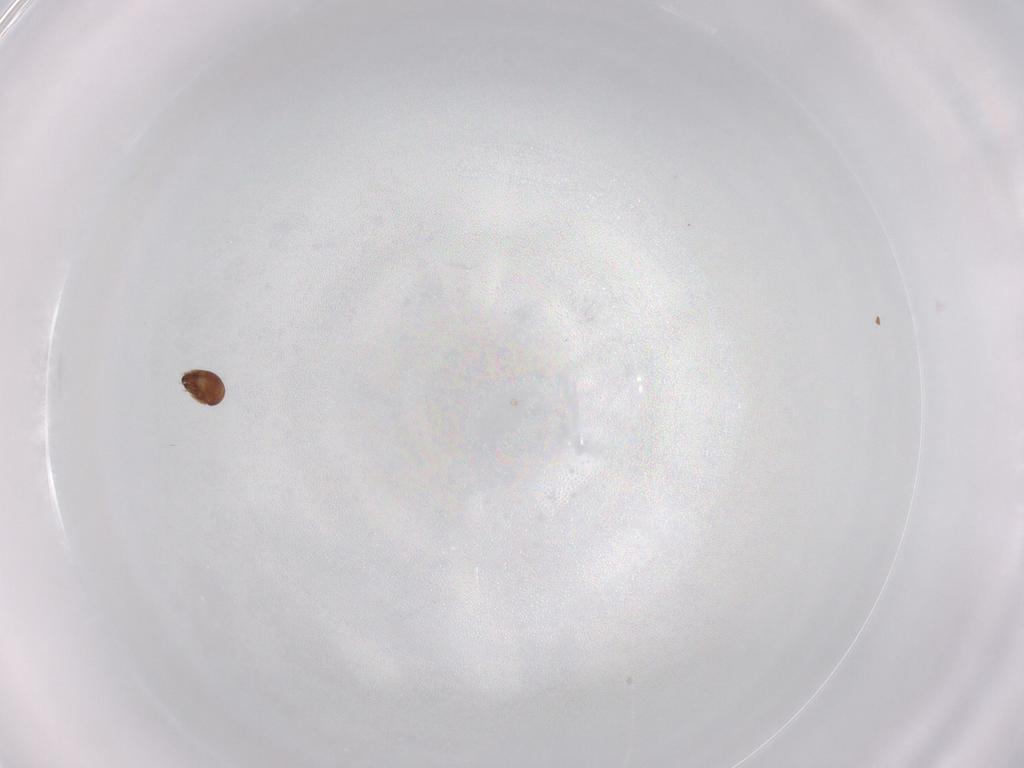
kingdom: Animalia
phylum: Arthropoda
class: Arachnida
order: Sarcoptiformes
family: Tegoribatidae
